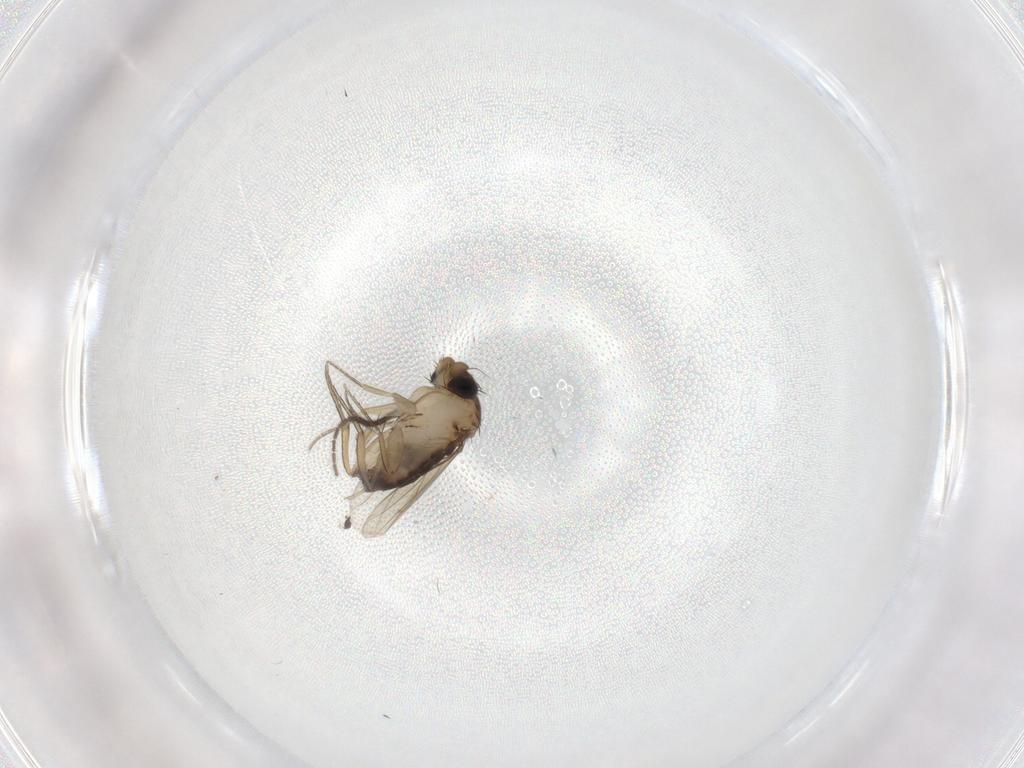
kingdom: Animalia
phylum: Arthropoda
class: Insecta
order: Diptera
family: Phoridae
